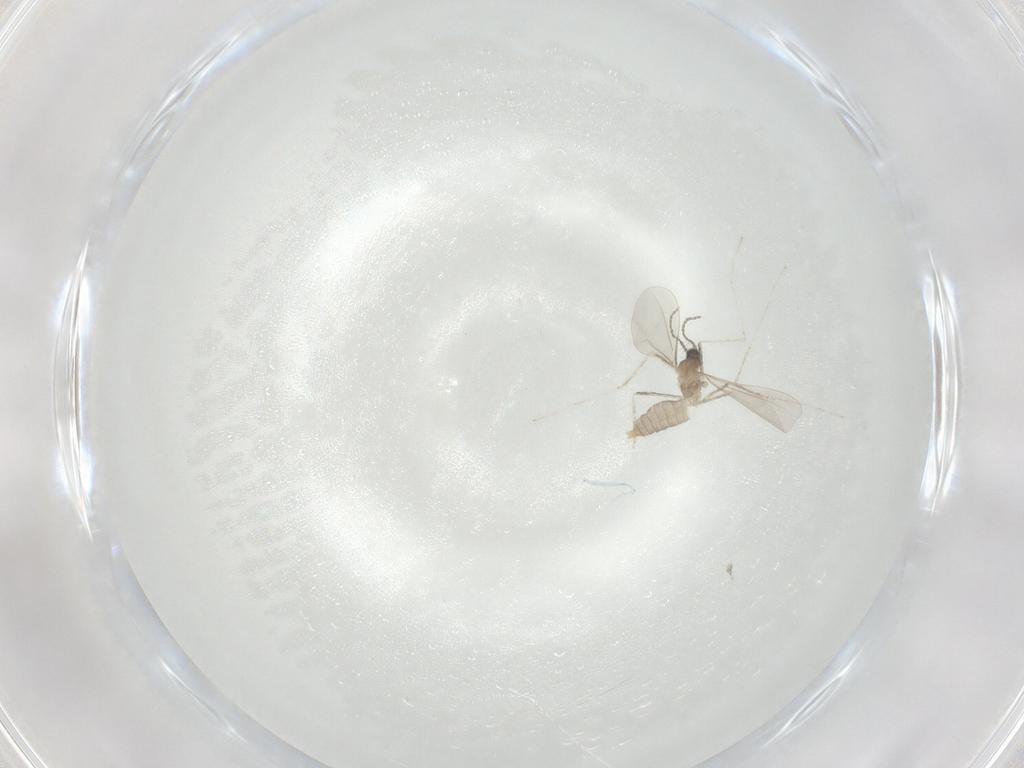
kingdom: Animalia
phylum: Arthropoda
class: Insecta
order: Diptera
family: Cecidomyiidae
